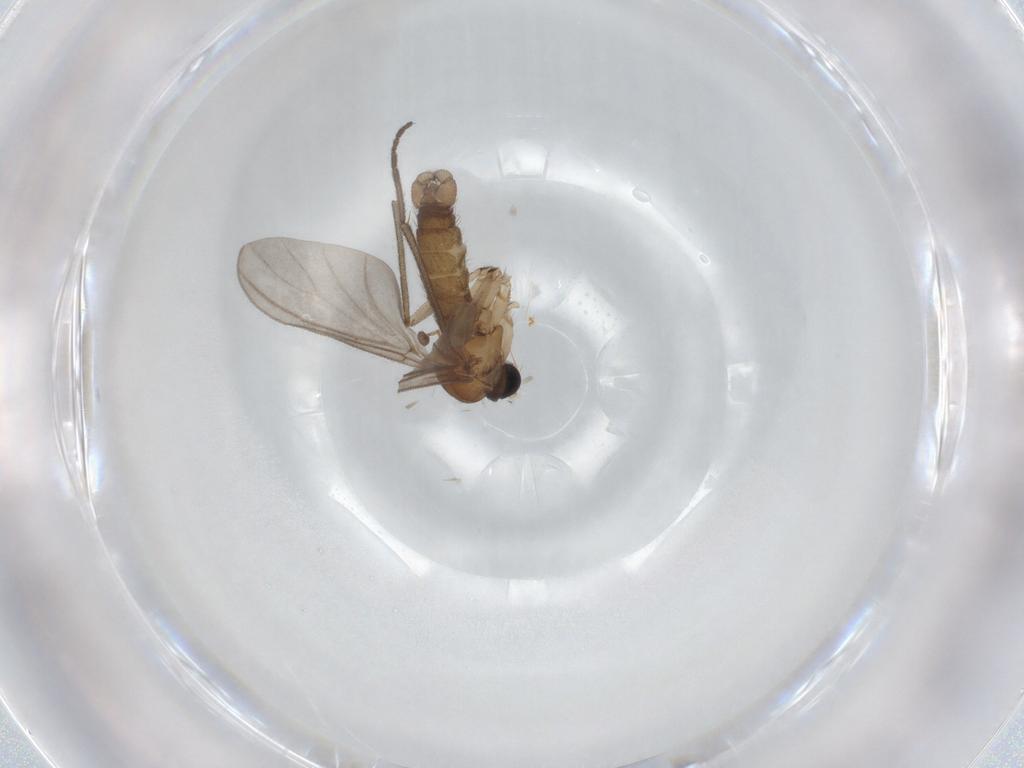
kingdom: Animalia
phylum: Arthropoda
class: Insecta
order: Diptera
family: Sciaridae
